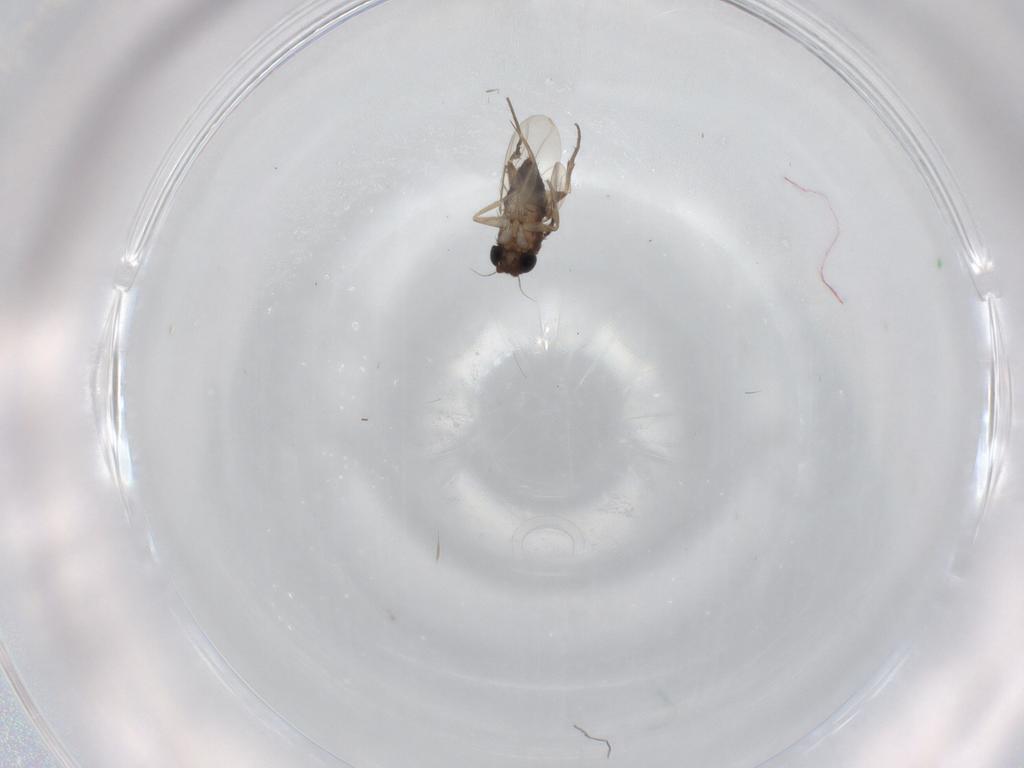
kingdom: Animalia
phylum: Arthropoda
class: Insecta
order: Diptera
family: Phoridae
